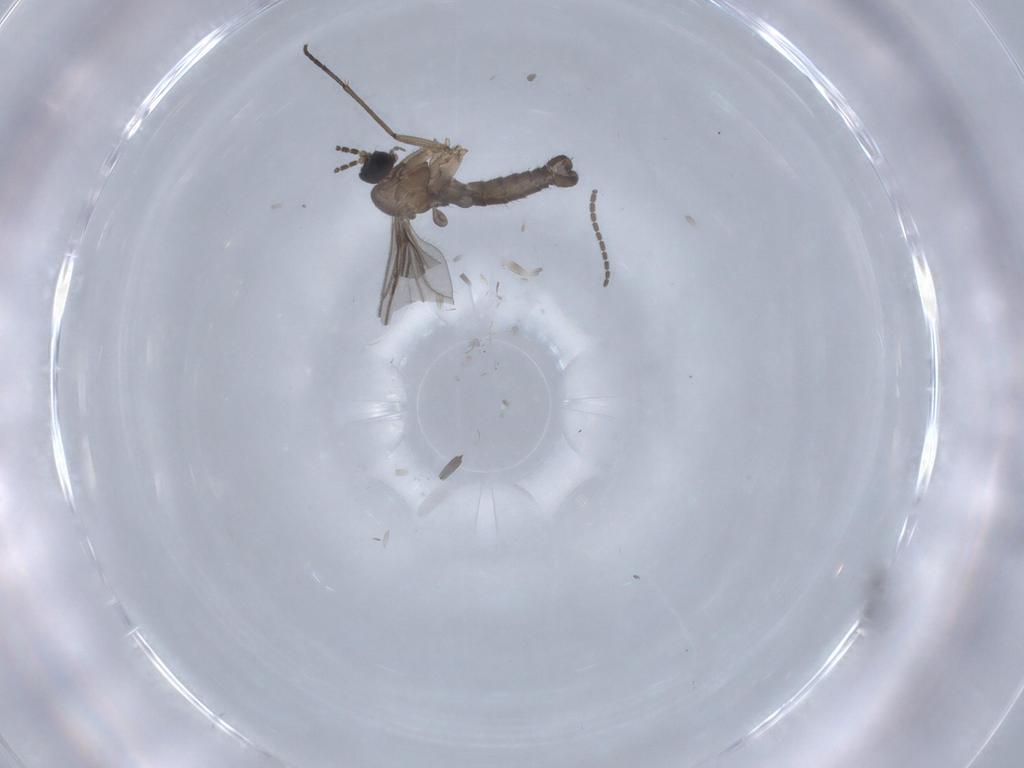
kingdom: Animalia
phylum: Arthropoda
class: Insecta
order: Diptera
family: Sciaridae
